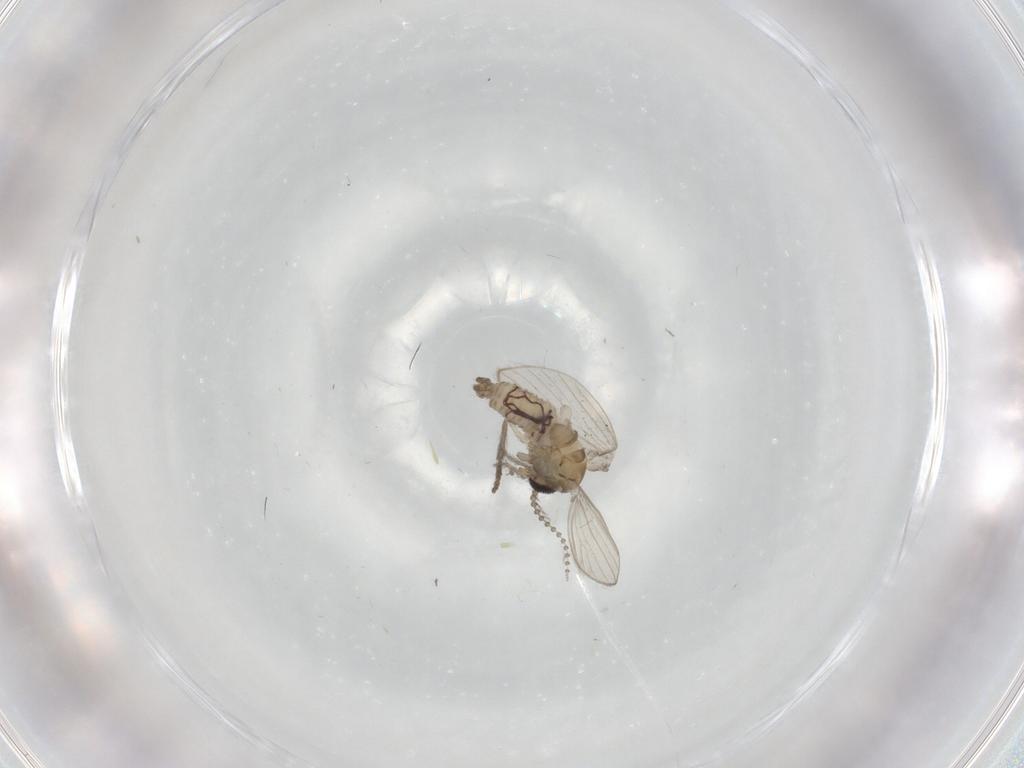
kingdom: Animalia
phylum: Arthropoda
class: Insecta
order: Diptera
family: Psychodidae
